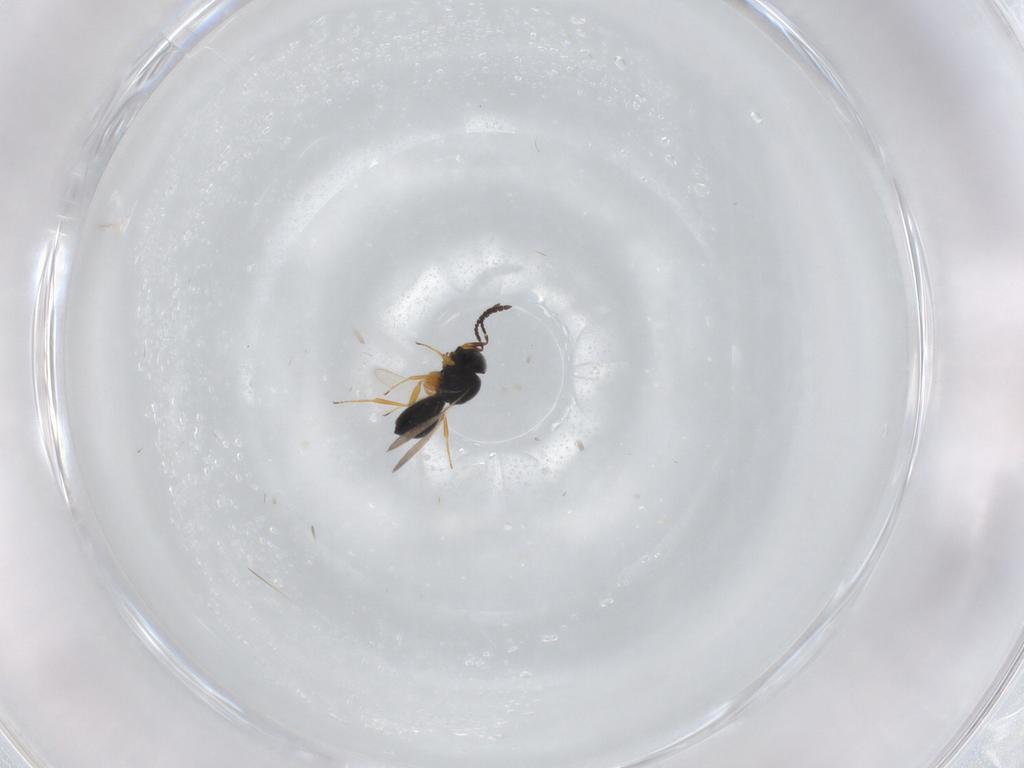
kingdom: Animalia
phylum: Arthropoda
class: Insecta
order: Hymenoptera
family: Scelionidae
